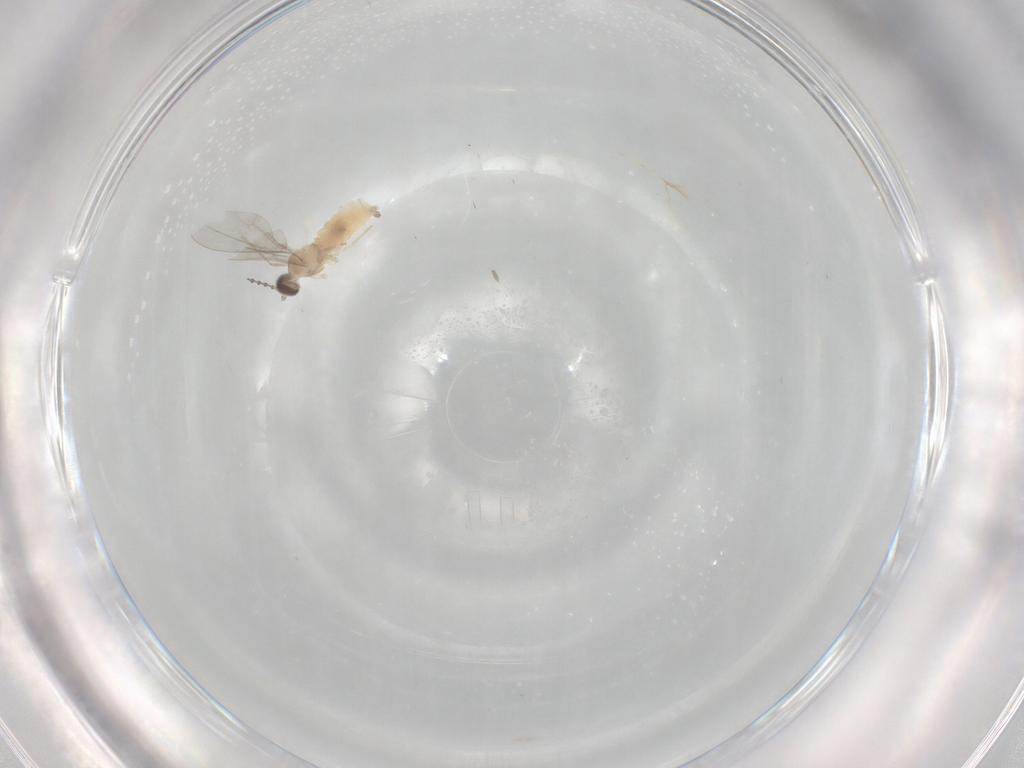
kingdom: Animalia
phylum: Arthropoda
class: Insecta
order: Diptera
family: Cecidomyiidae
